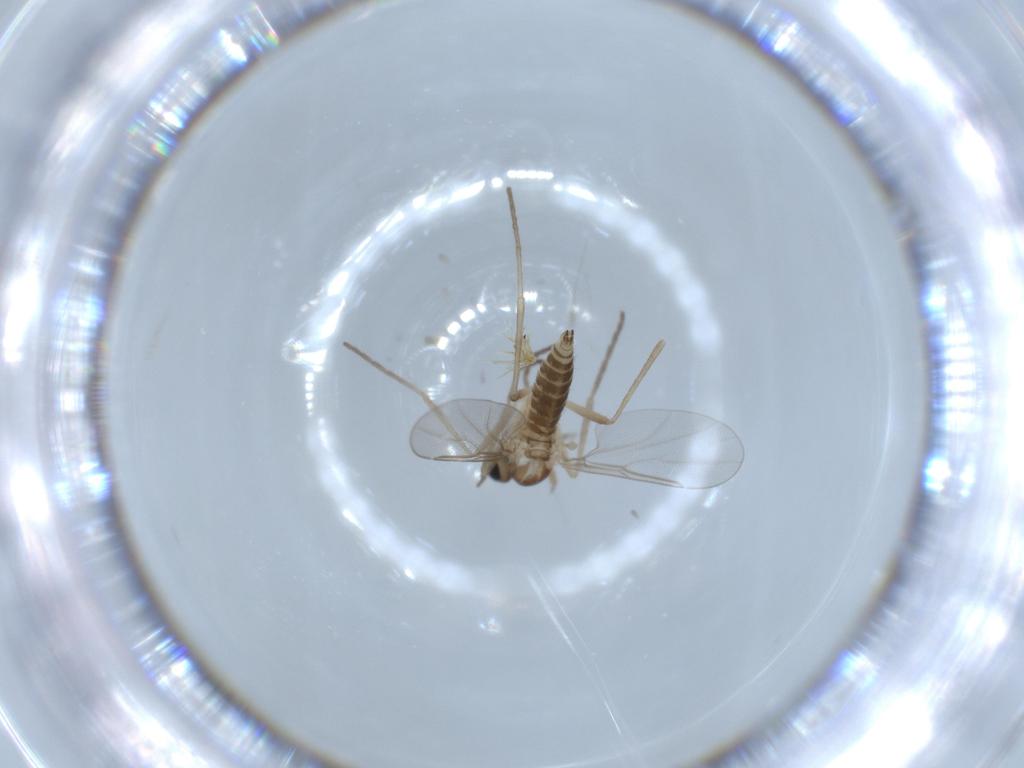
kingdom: Animalia
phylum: Arthropoda
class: Insecta
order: Diptera
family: Cecidomyiidae
